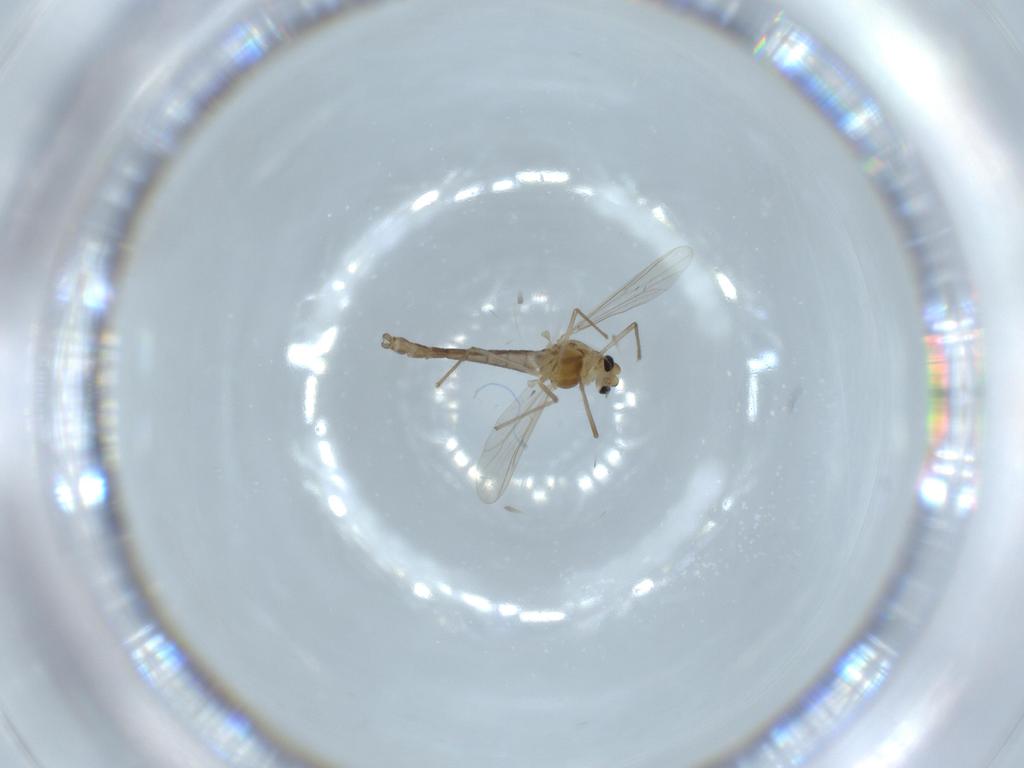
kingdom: Animalia
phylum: Arthropoda
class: Insecta
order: Diptera
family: Chironomidae
